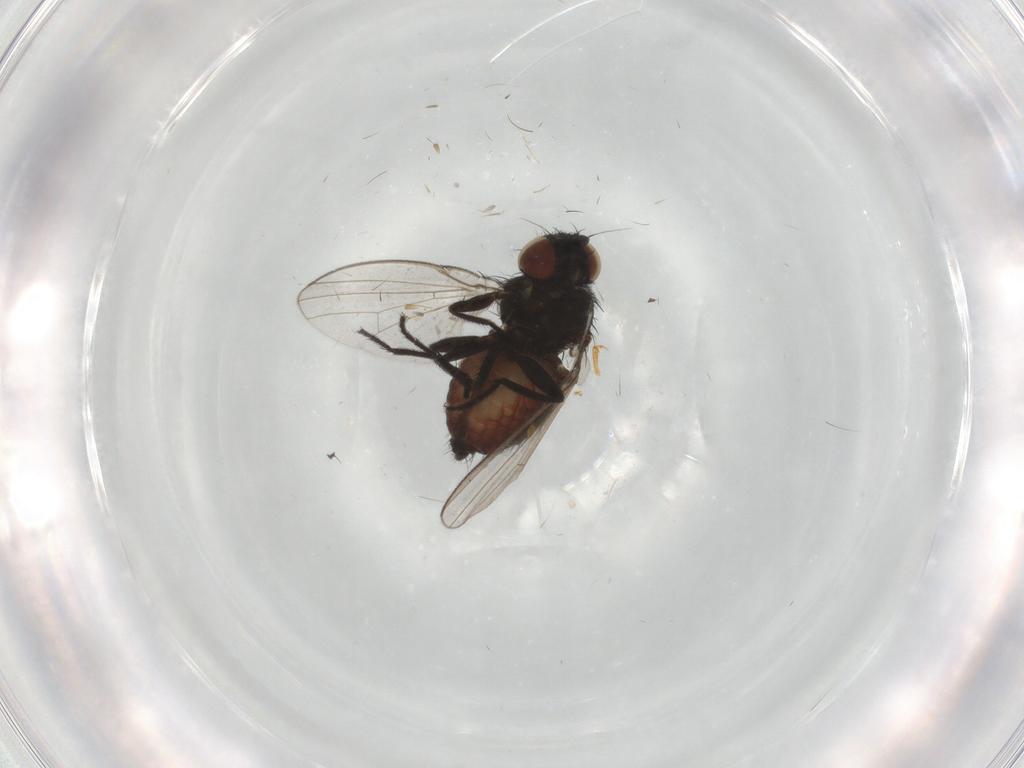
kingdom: Animalia
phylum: Arthropoda
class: Insecta
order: Diptera
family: Milichiidae
